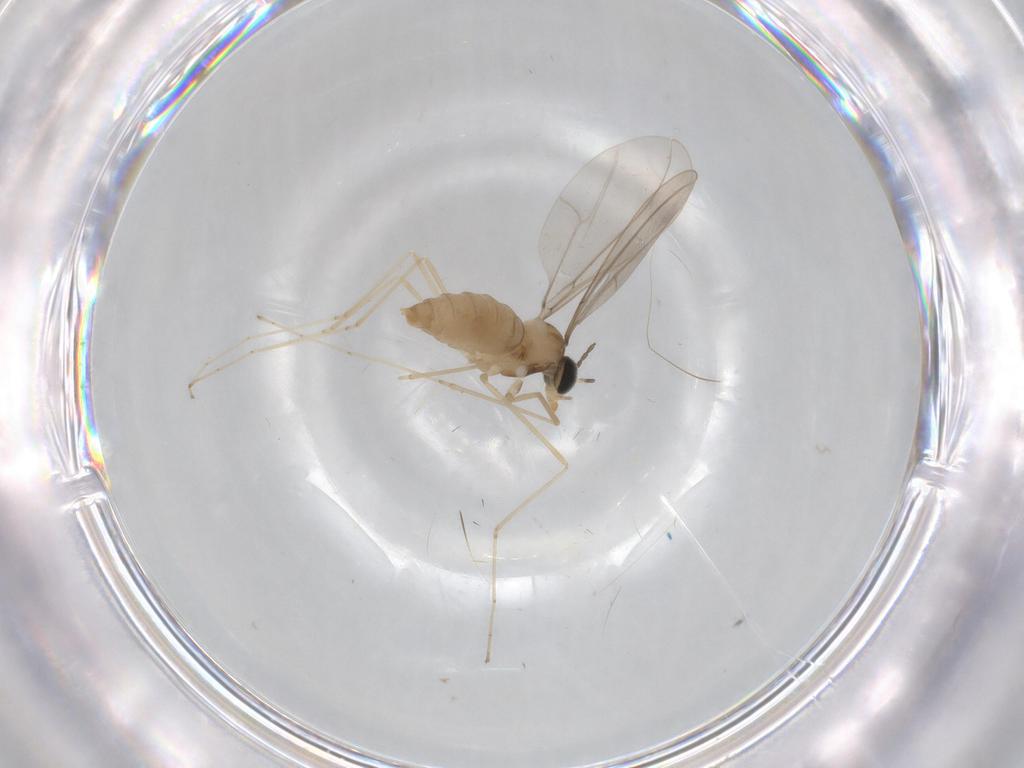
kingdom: Animalia
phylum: Arthropoda
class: Insecta
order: Diptera
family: Cecidomyiidae
